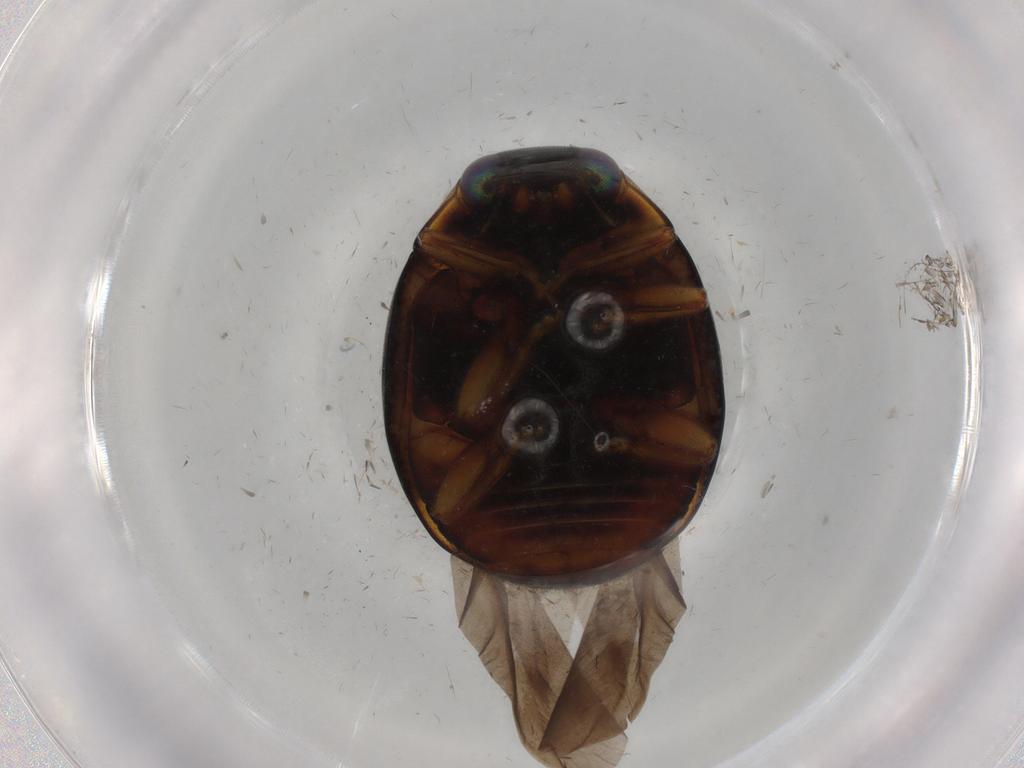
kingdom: Animalia
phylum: Arthropoda
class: Insecta
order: Coleoptera
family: Coccinellidae
